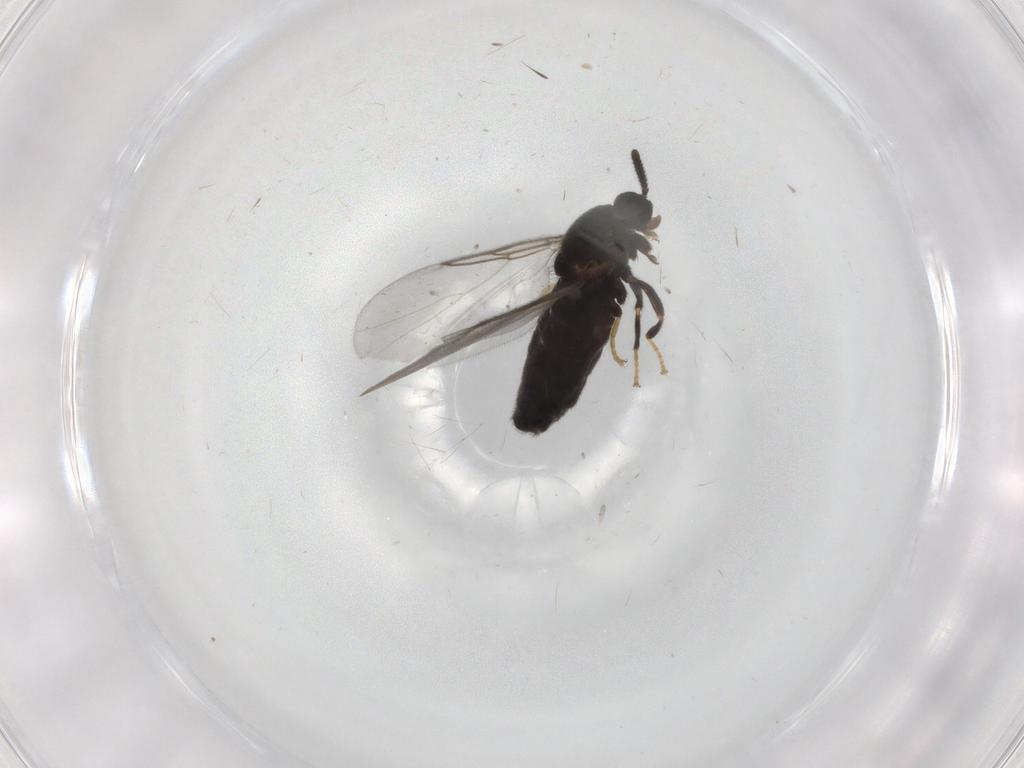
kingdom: Animalia
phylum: Arthropoda
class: Insecta
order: Diptera
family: Scatopsidae
